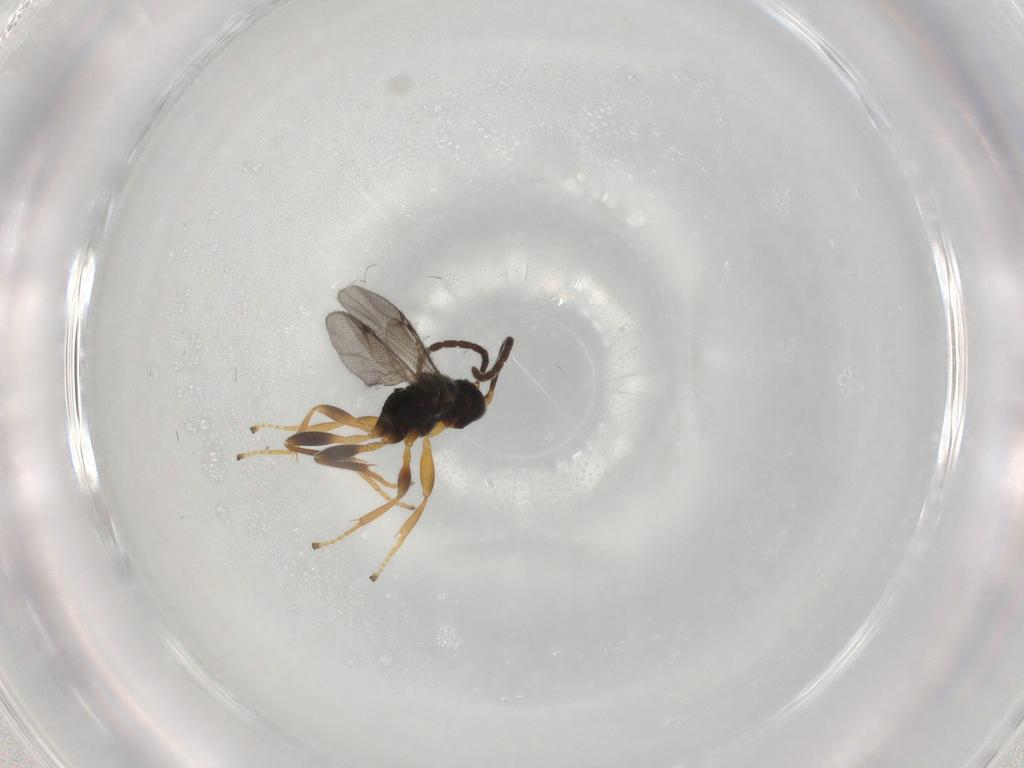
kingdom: Animalia
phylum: Arthropoda
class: Insecta
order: Hymenoptera
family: Proctotrupidae
